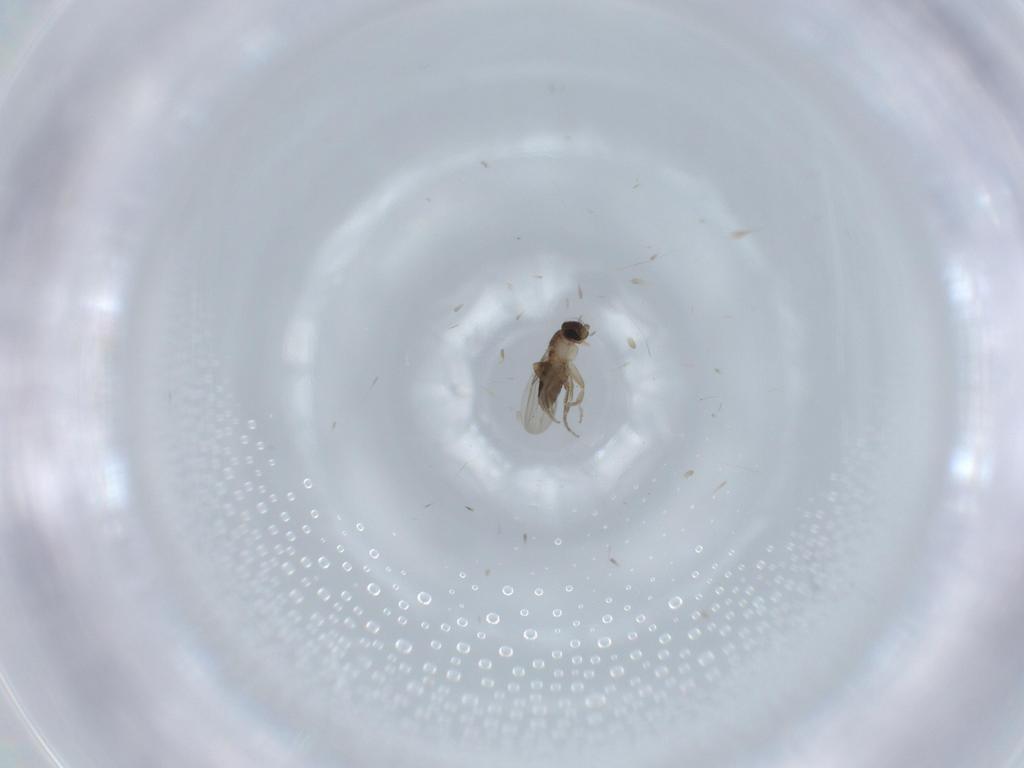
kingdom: Animalia
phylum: Arthropoda
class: Insecta
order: Diptera
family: Phoridae
